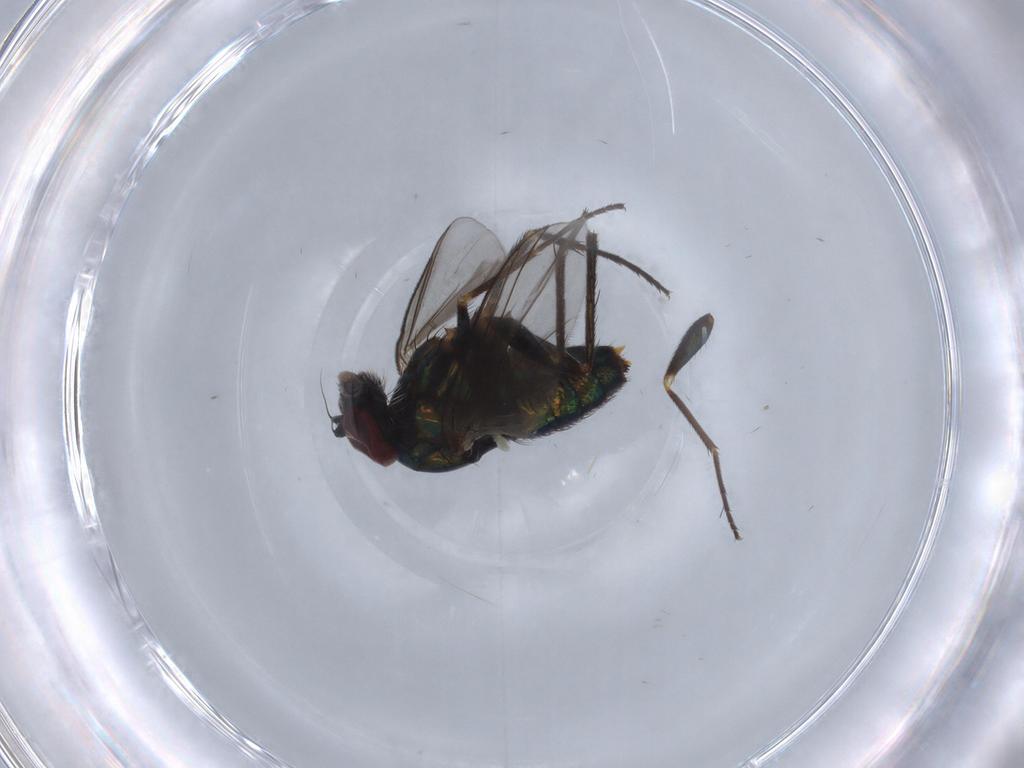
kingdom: Animalia
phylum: Arthropoda
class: Insecta
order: Diptera
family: Dolichopodidae
